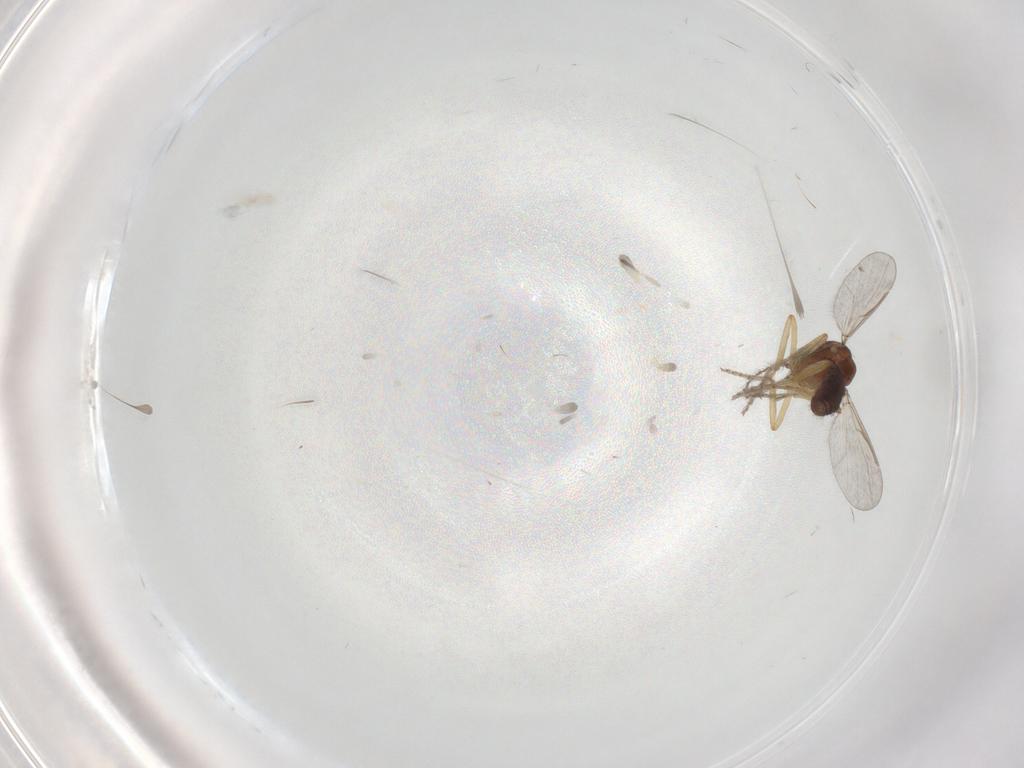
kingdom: Animalia
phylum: Arthropoda
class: Insecta
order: Diptera
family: Ceratopogonidae
